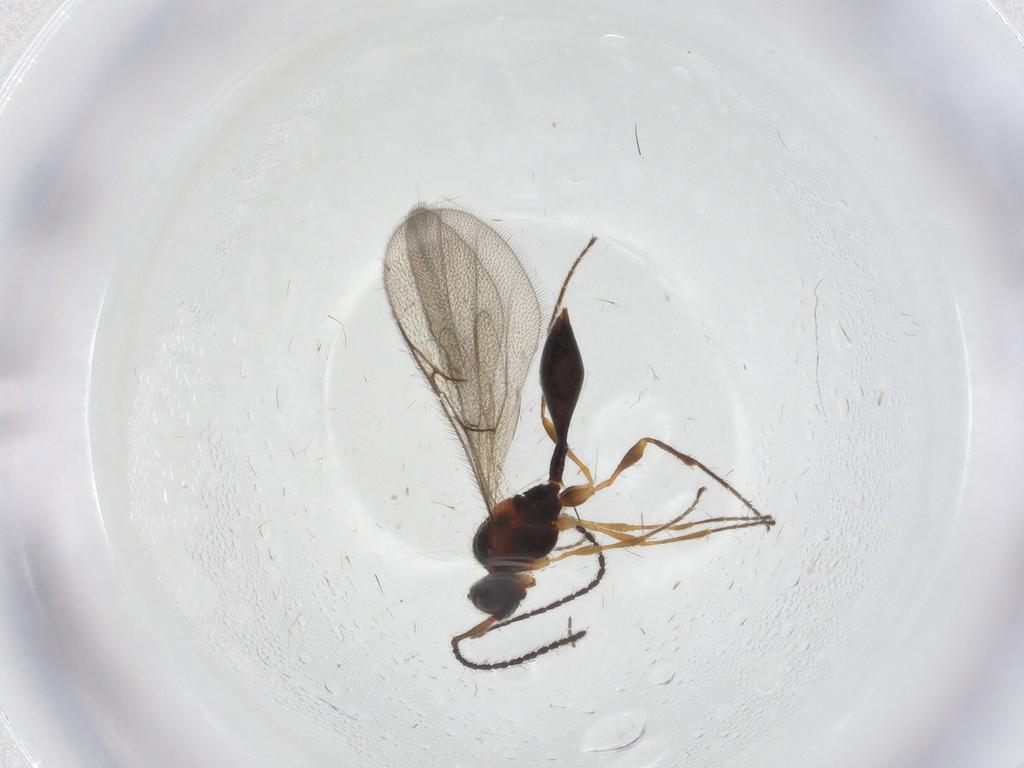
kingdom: Animalia
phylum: Arthropoda
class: Insecta
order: Hymenoptera
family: Diapriidae
